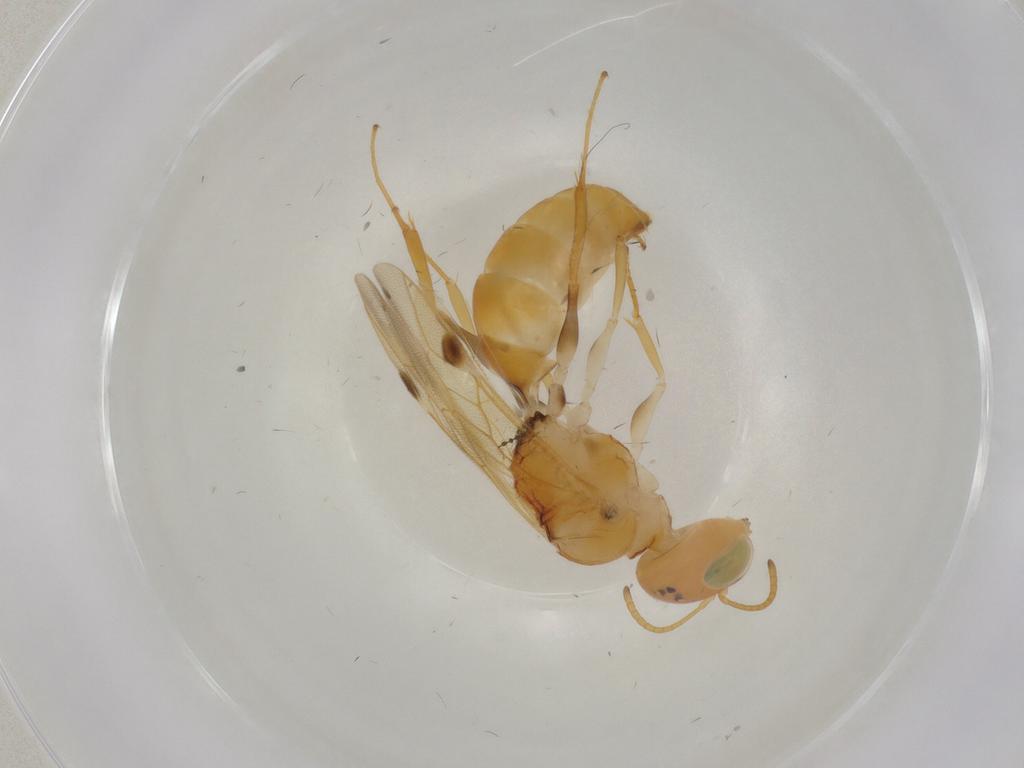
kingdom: Animalia
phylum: Arthropoda
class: Insecta
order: Hymenoptera
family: Pemphredonidae
